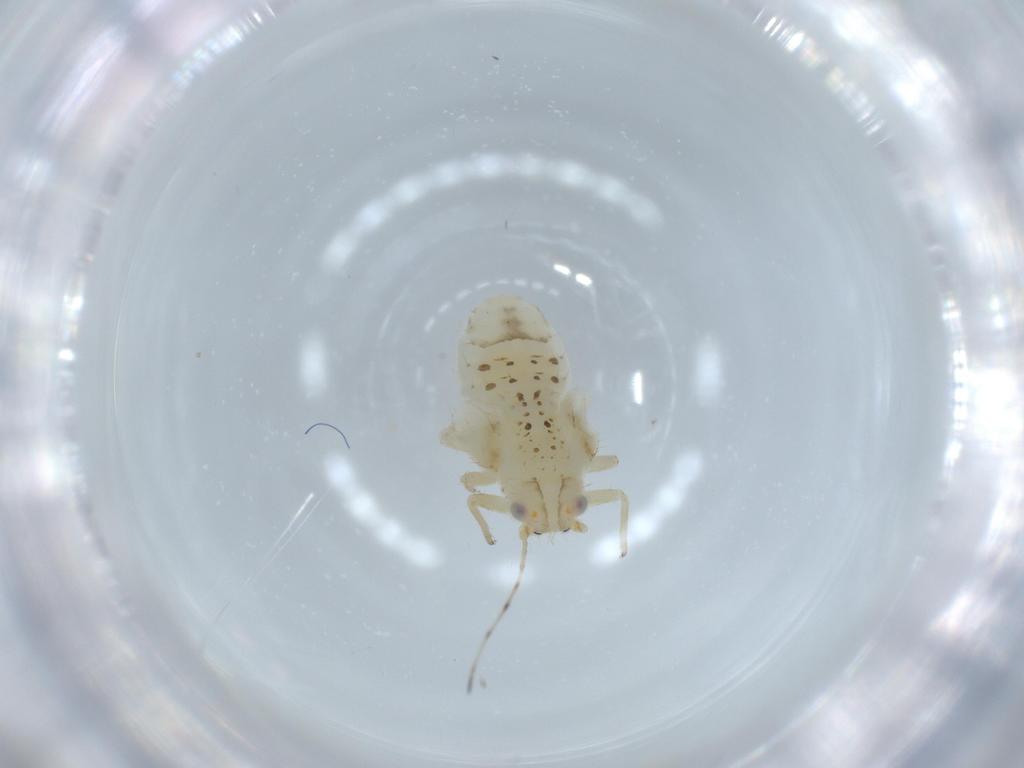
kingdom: Animalia
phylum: Arthropoda
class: Insecta
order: Hemiptera
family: Psyllidae
